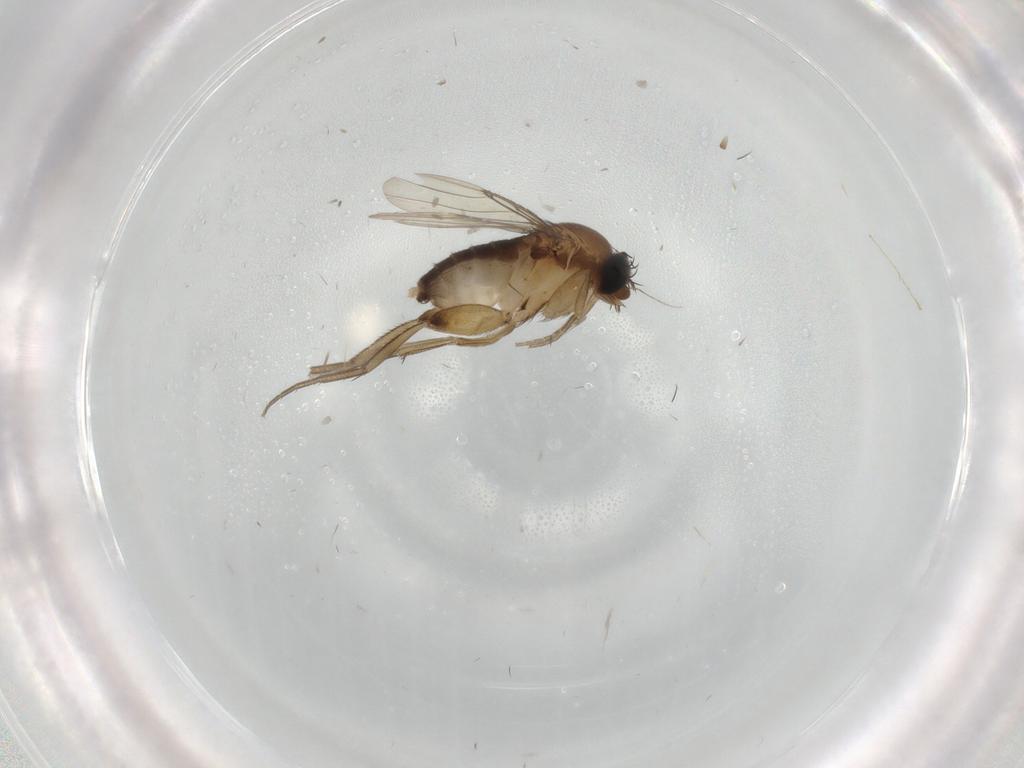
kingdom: Animalia
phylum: Arthropoda
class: Insecta
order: Diptera
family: Phoridae
